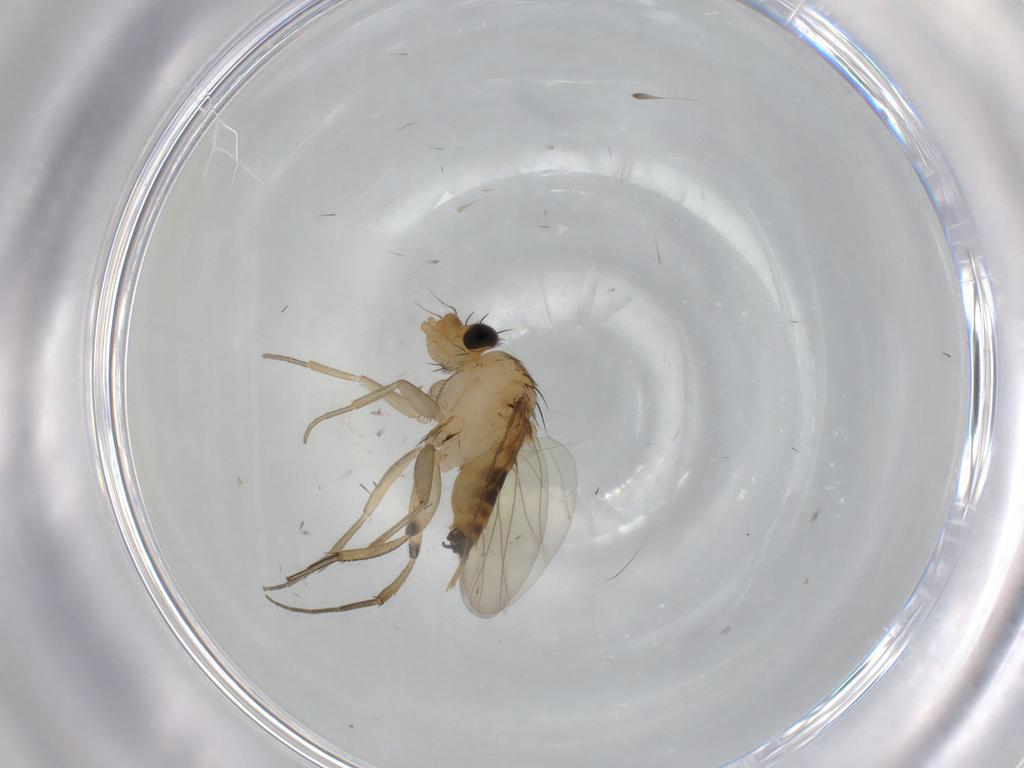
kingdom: Animalia
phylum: Arthropoda
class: Insecta
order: Diptera
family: Phoridae
